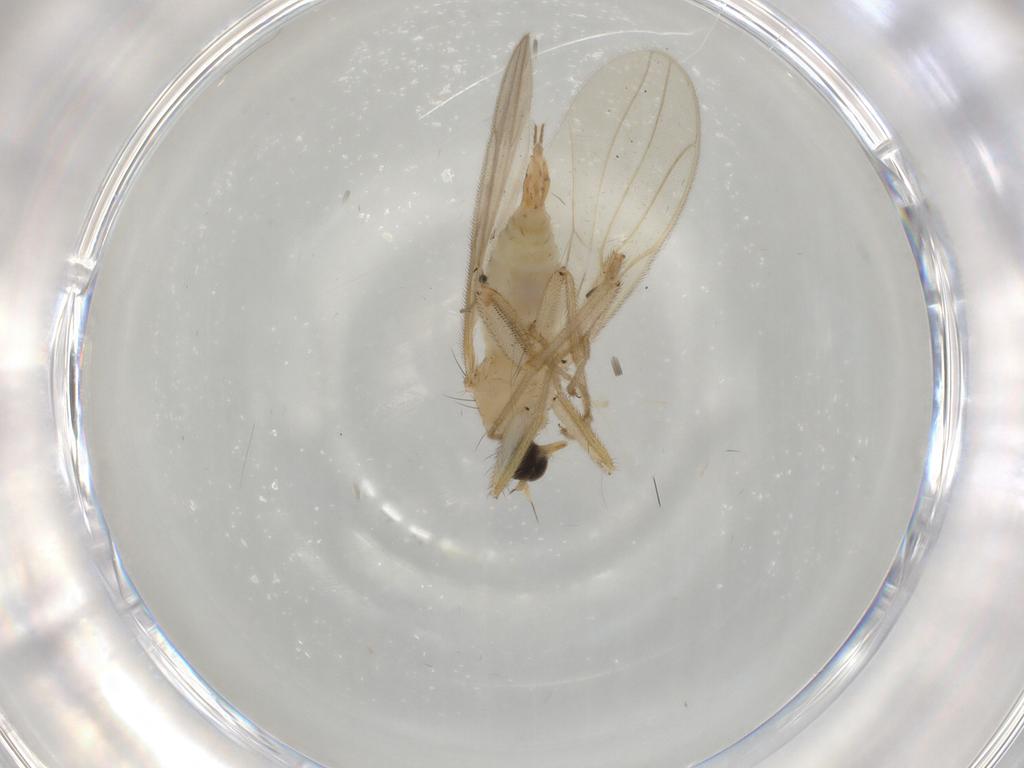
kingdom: Animalia
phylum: Arthropoda
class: Insecta
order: Diptera
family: Hybotidae
